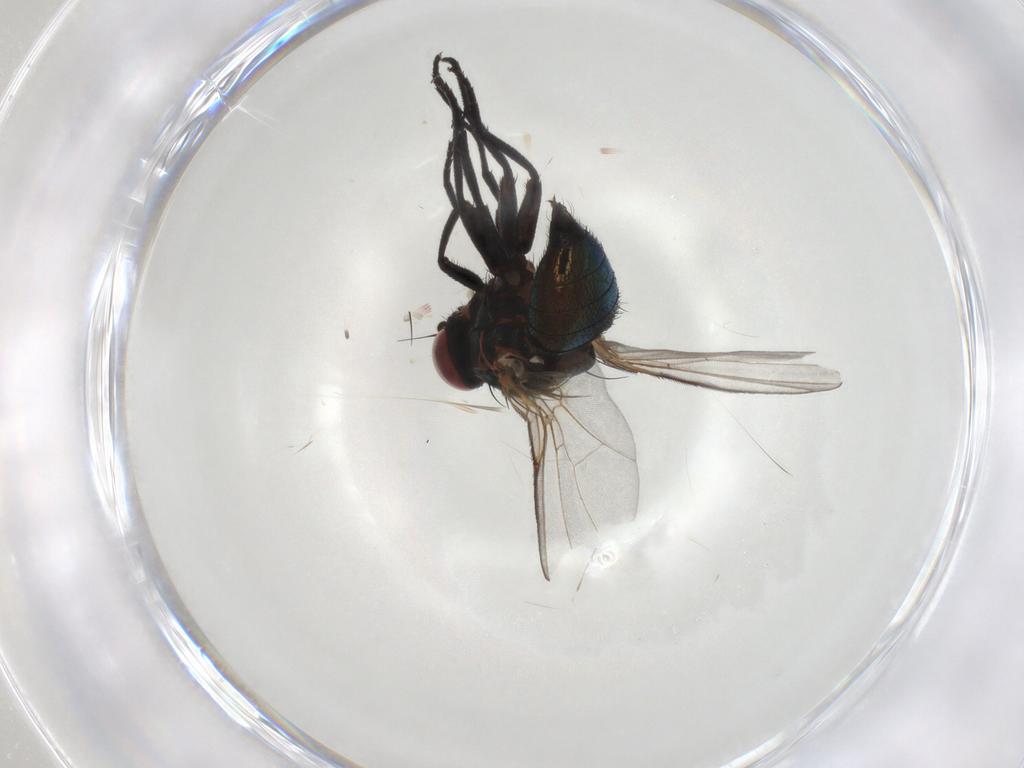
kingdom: Animalia
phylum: Arthropoda
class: Insecta
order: Diptera
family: Agromyzidae
